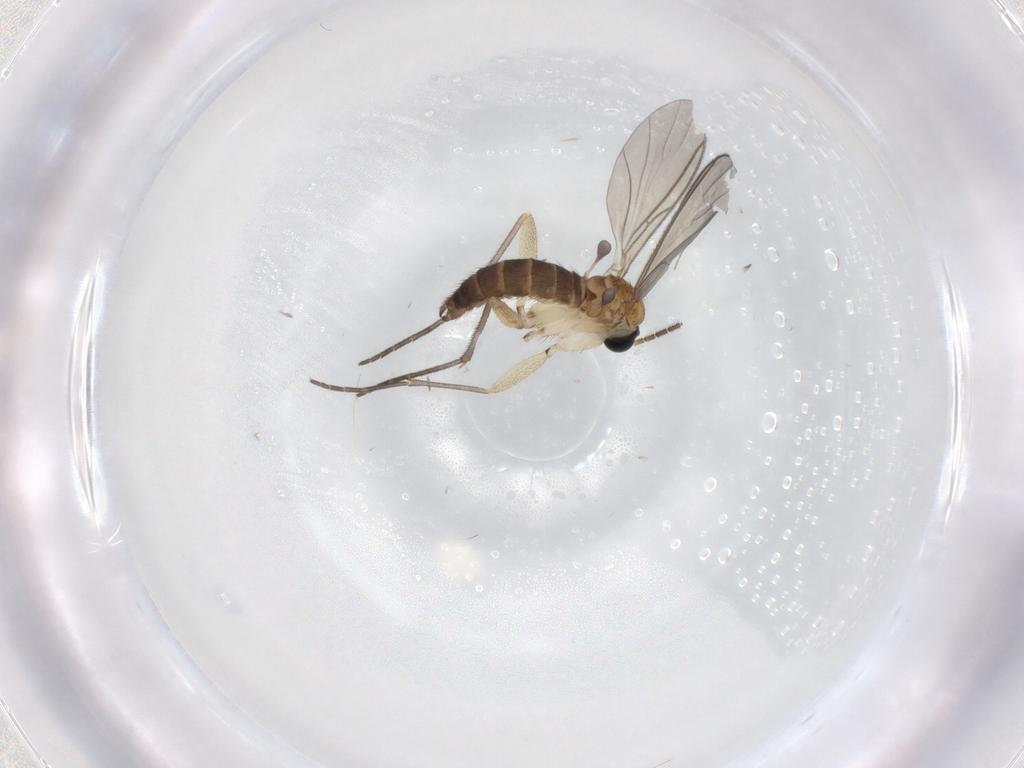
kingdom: Animalia
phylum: Arthropoda
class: Insecta
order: Diptera
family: Sciaridae
